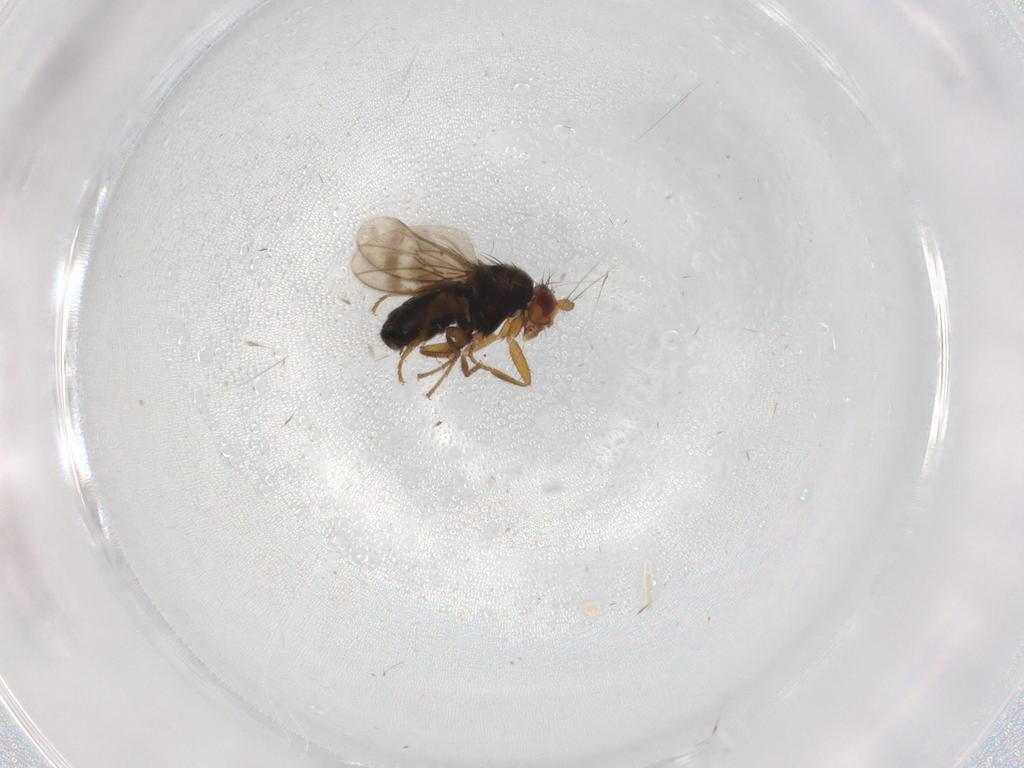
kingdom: Animalia
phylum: Arthropoda
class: Insecta
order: Diptera
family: Sphaeroceridae
